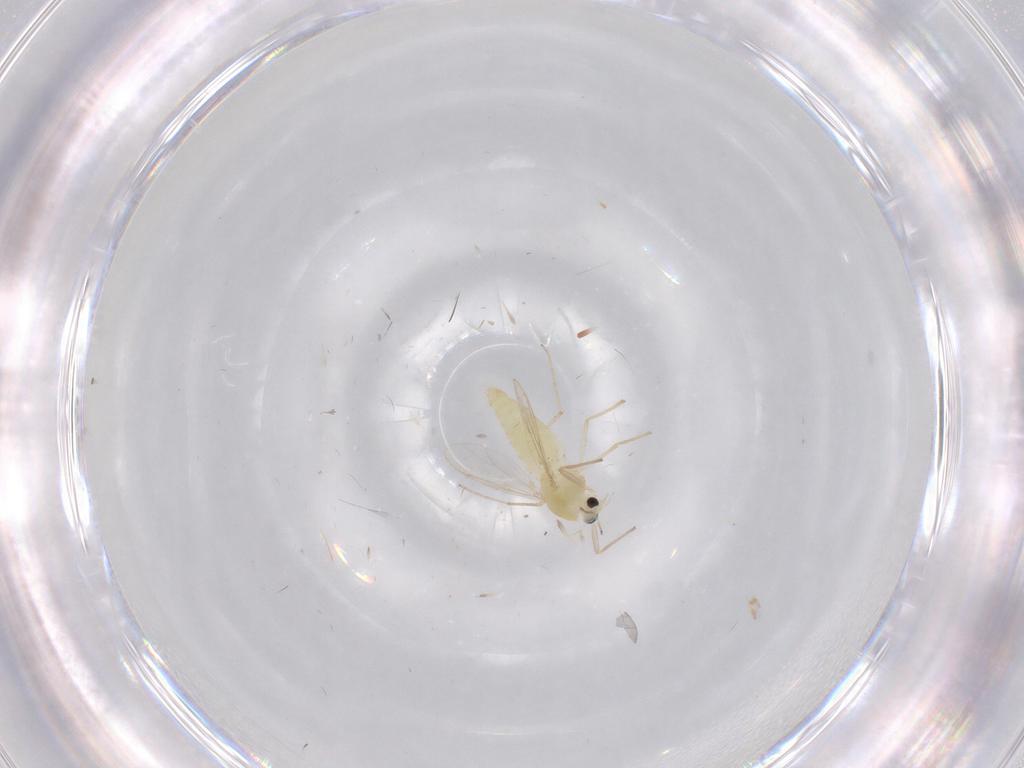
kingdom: Animalia
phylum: Arthropoda
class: Insecta
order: Diptera
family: Chironomidae
